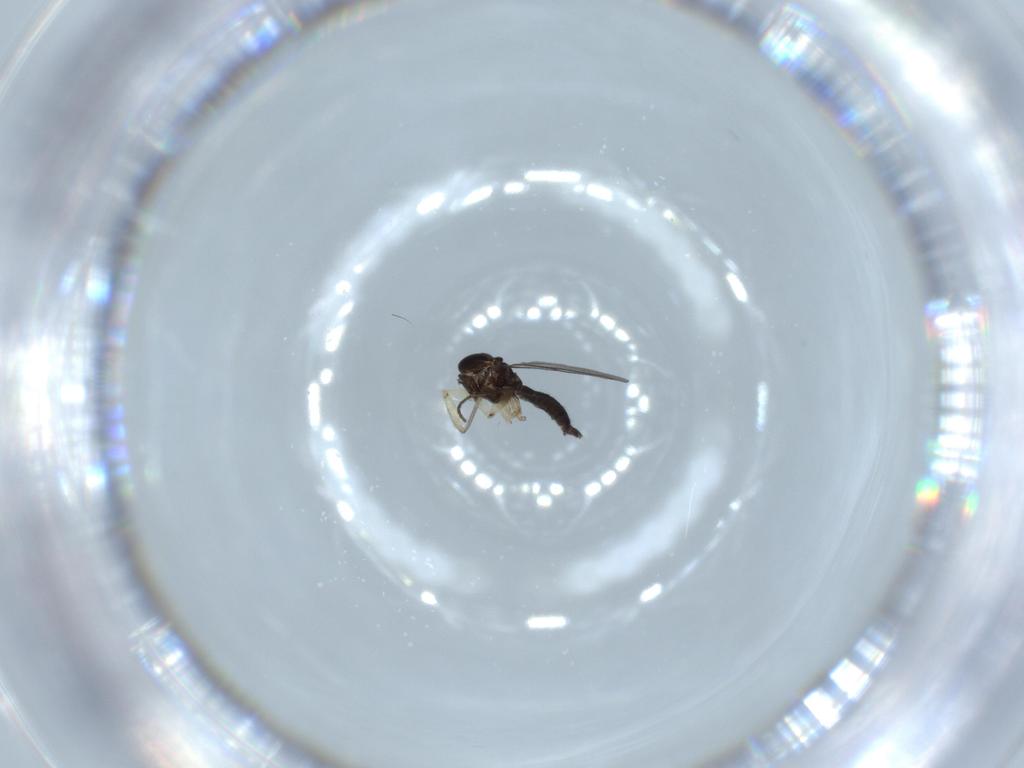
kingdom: Animalia
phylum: Arthropoda
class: Insecta
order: Diptera
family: Cecidomyiidae
